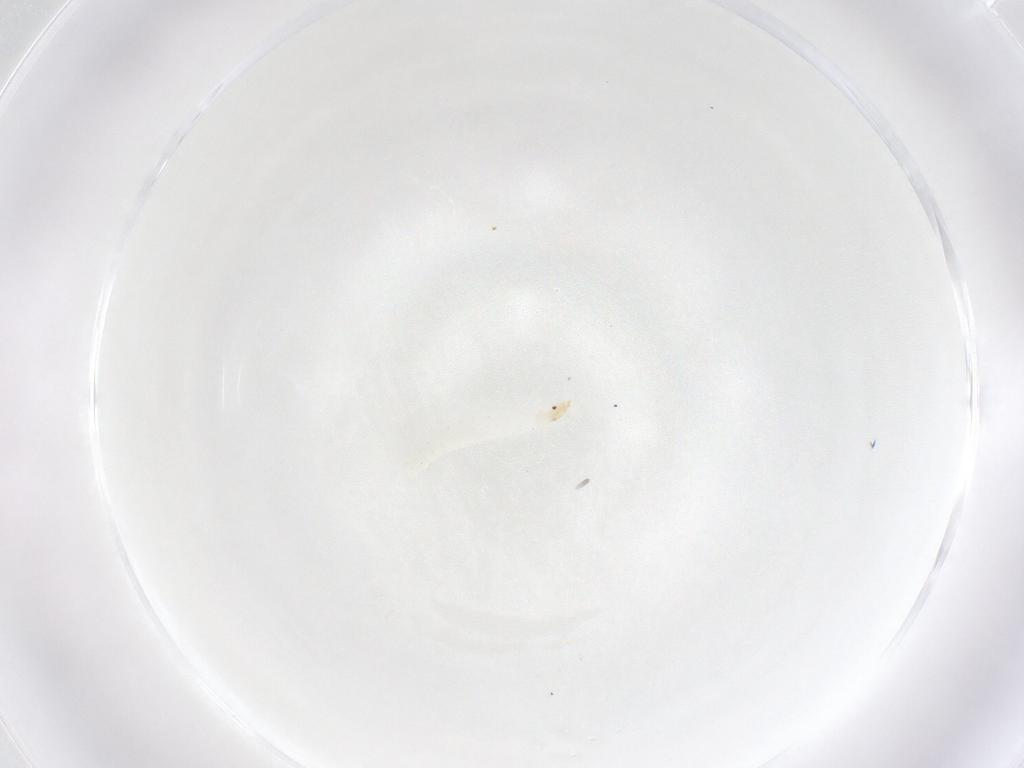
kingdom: Animalia
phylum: Arthropoda
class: Insecta
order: Diptera
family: Stratiomyidae
